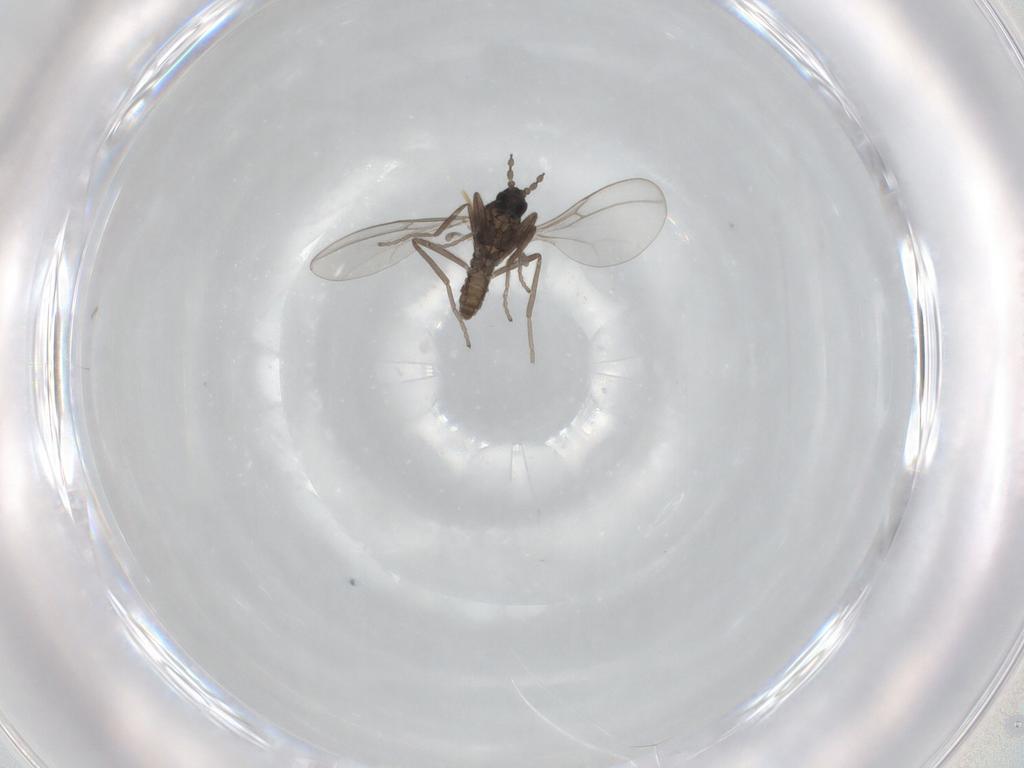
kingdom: Animalia
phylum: Arthropoda
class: Insecta
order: Diptera
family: Cecidomyiidae
